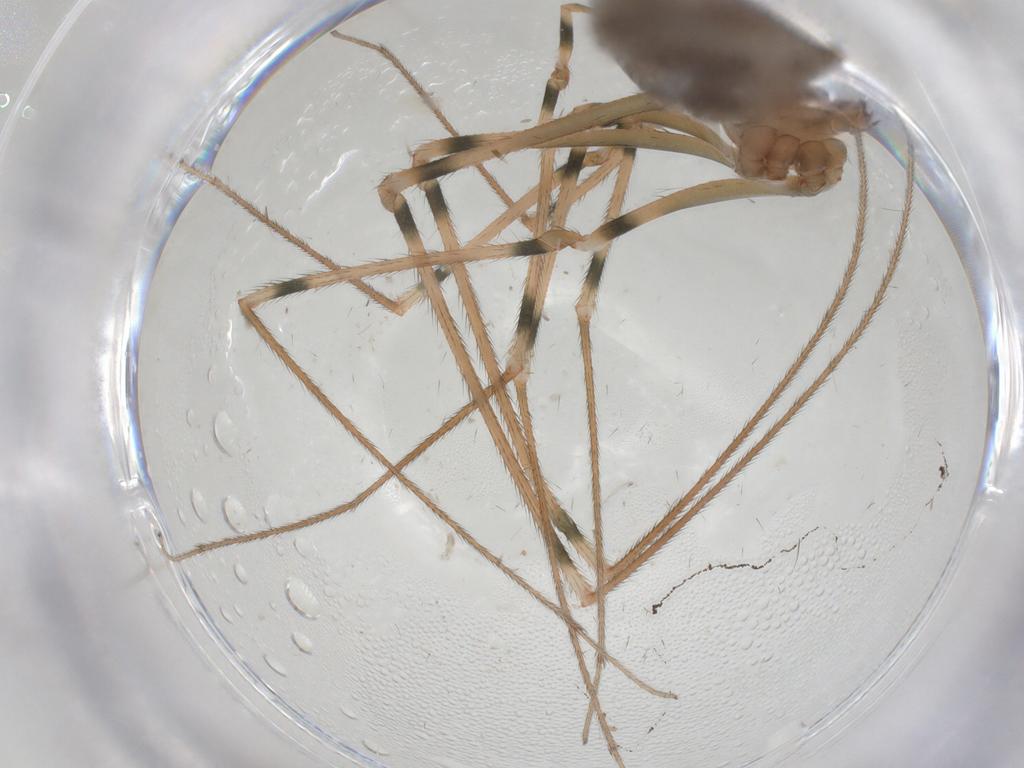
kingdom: Animalia
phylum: Arthropoda
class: Arachnida
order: Araneae
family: Pholcidae
